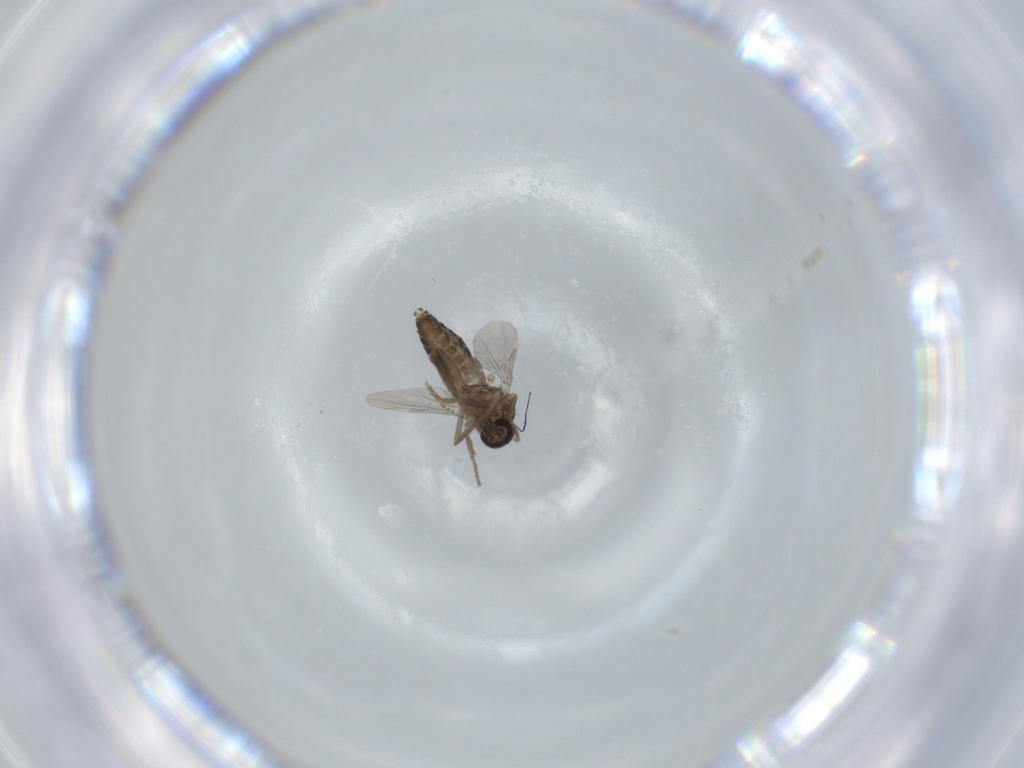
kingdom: Animalia
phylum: Arthropoda
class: Insecta
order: Diptera
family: Ceratopogonidae
